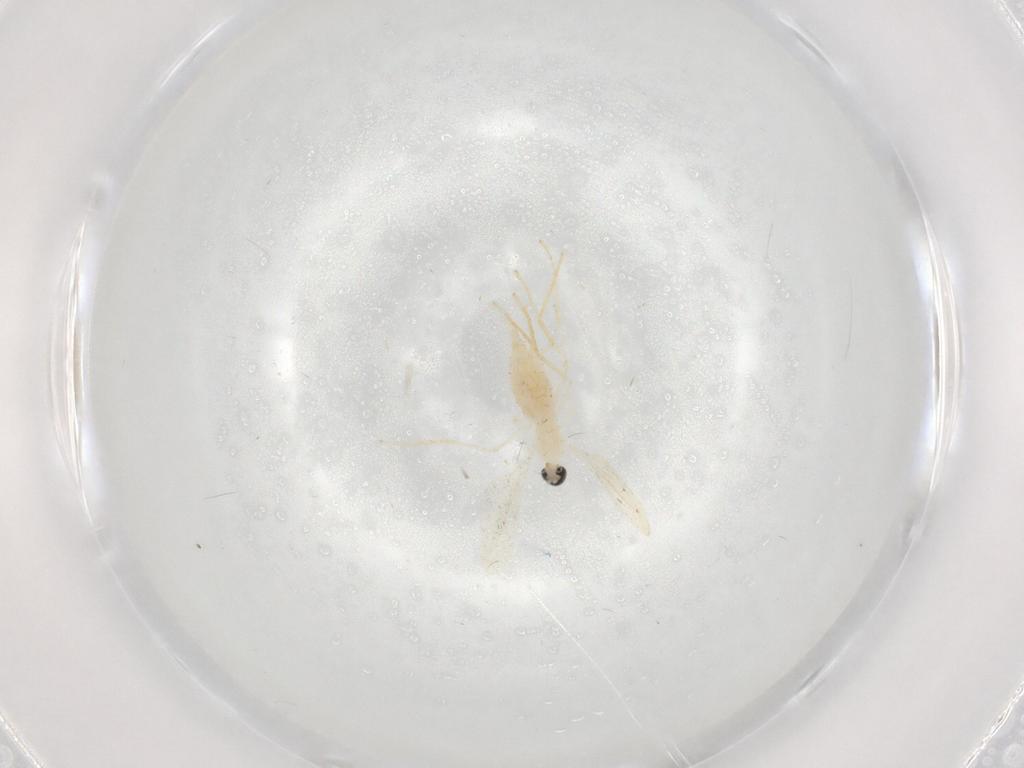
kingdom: Animalia
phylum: Arthropoda
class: Insecta
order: Diptera
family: Cecidomyiidae
